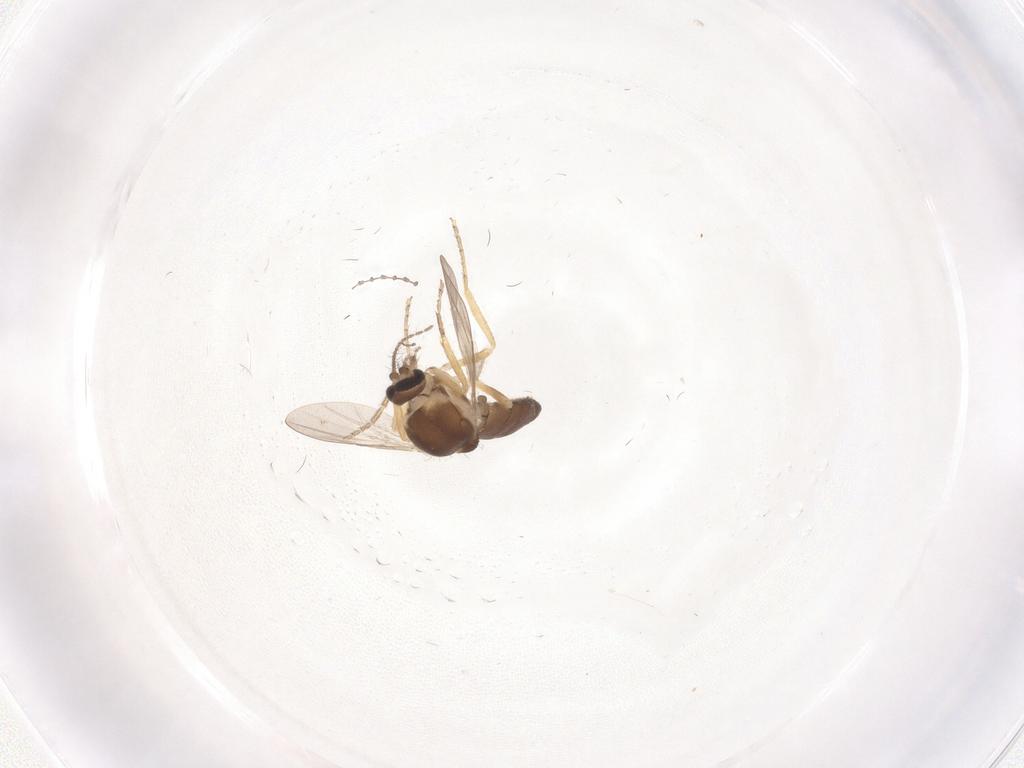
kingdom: Animalia
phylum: Arthropoda
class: Insecta
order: Diptera
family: Ceratopogonidae
